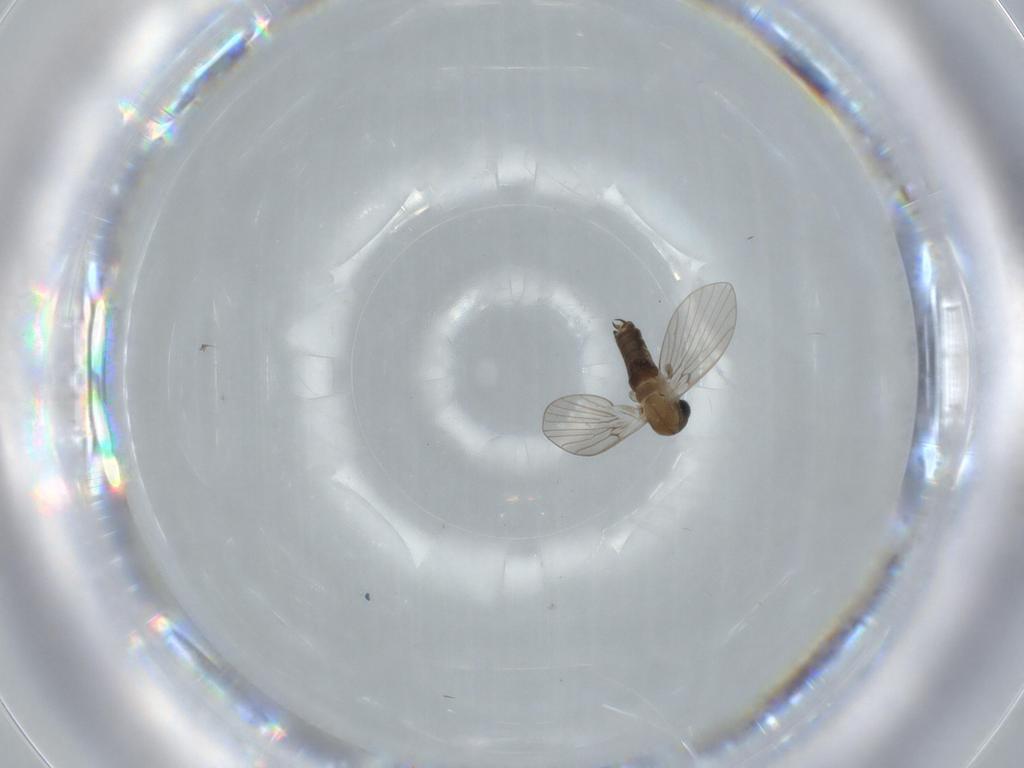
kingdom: Animalia
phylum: Arthropoda
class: Insecta
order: Diptera
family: Psychodidae
